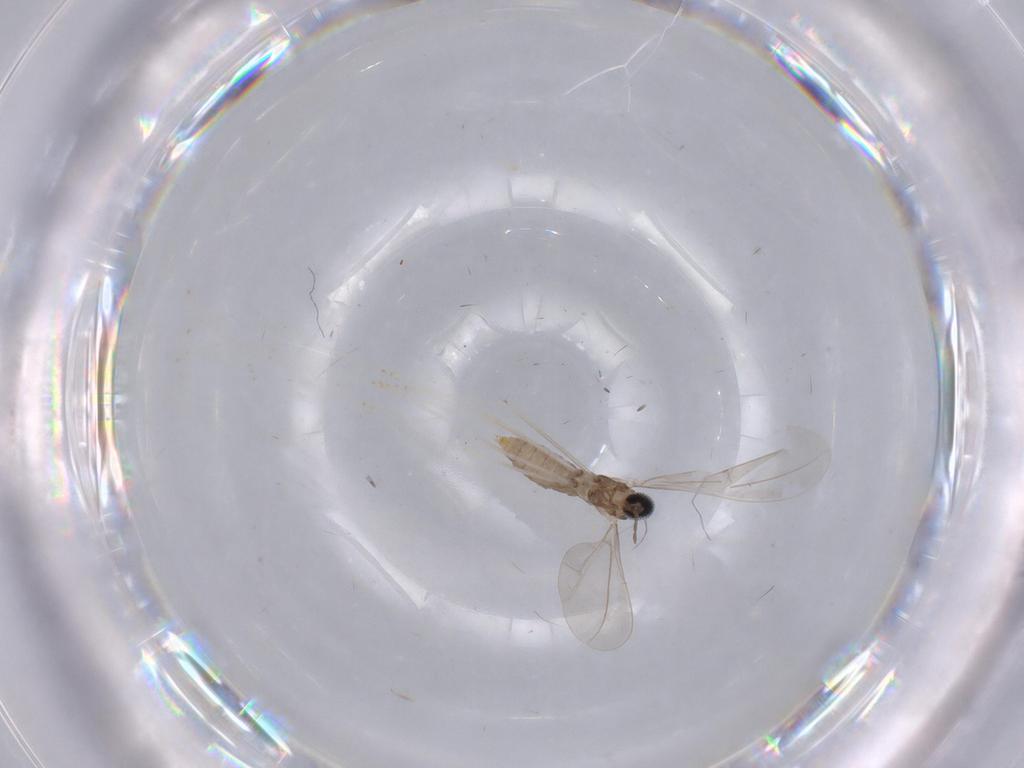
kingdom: Animalia
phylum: Arthropoda
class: Insecta
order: Diptera
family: Cecidomyiidae
